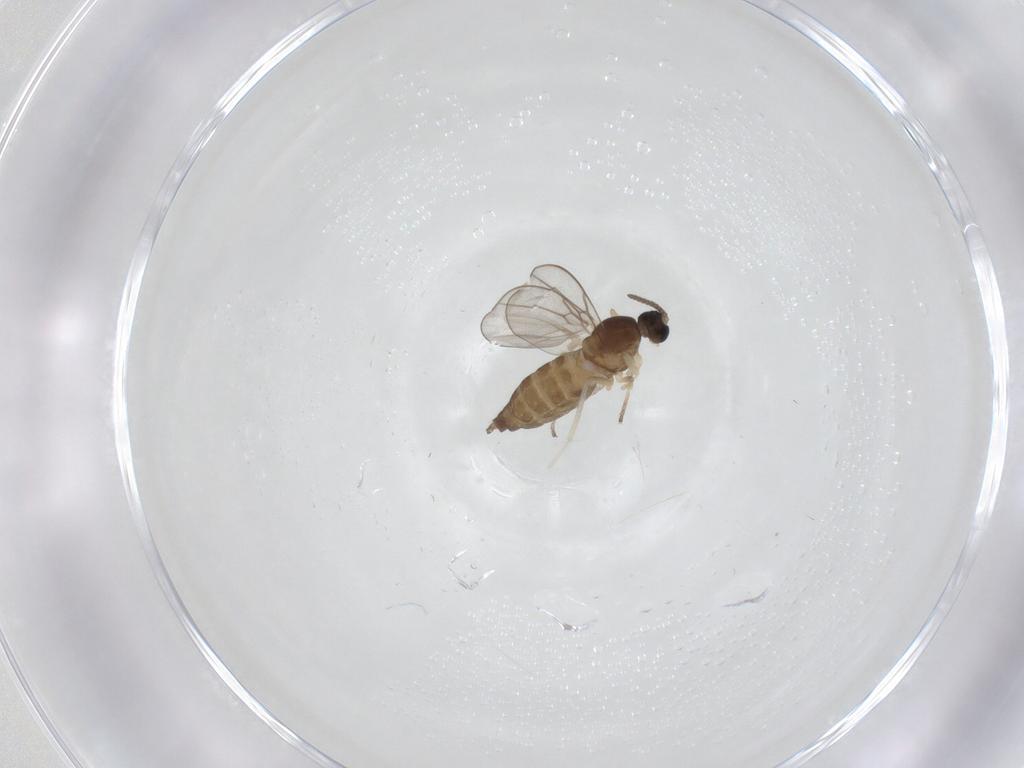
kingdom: Animalia
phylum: Arthropoda
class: Insecta
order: Diptera
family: Cecidomyiidae
